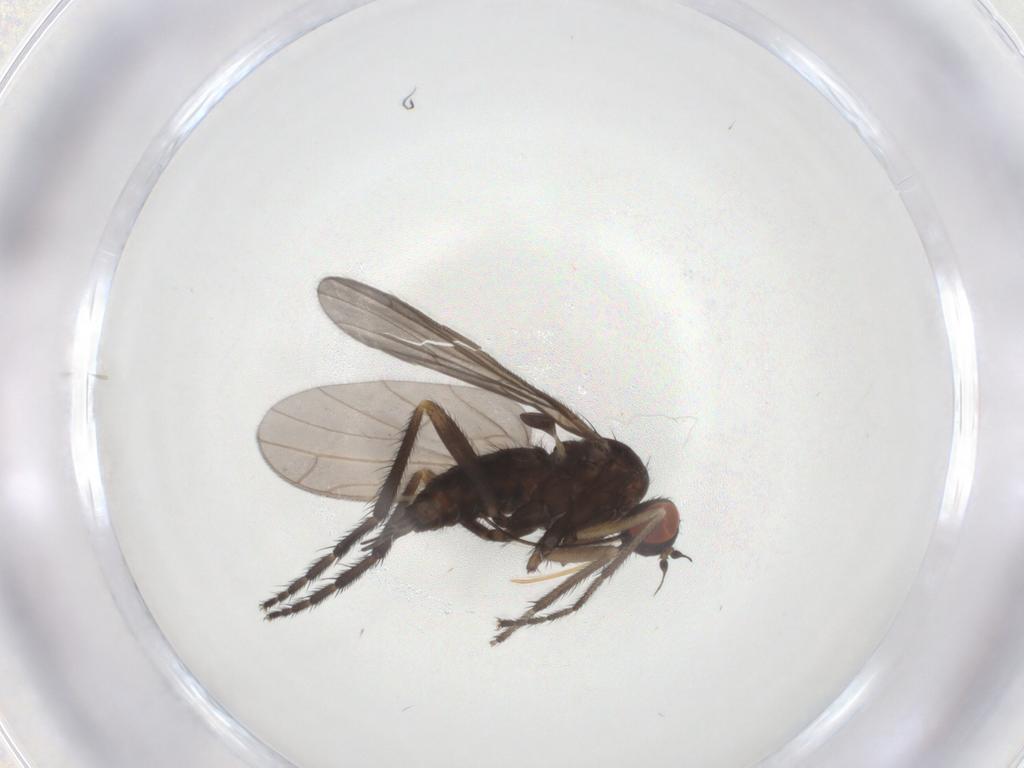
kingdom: Animalia
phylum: Arthropoda
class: Insecta
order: Diptera
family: Empididae
